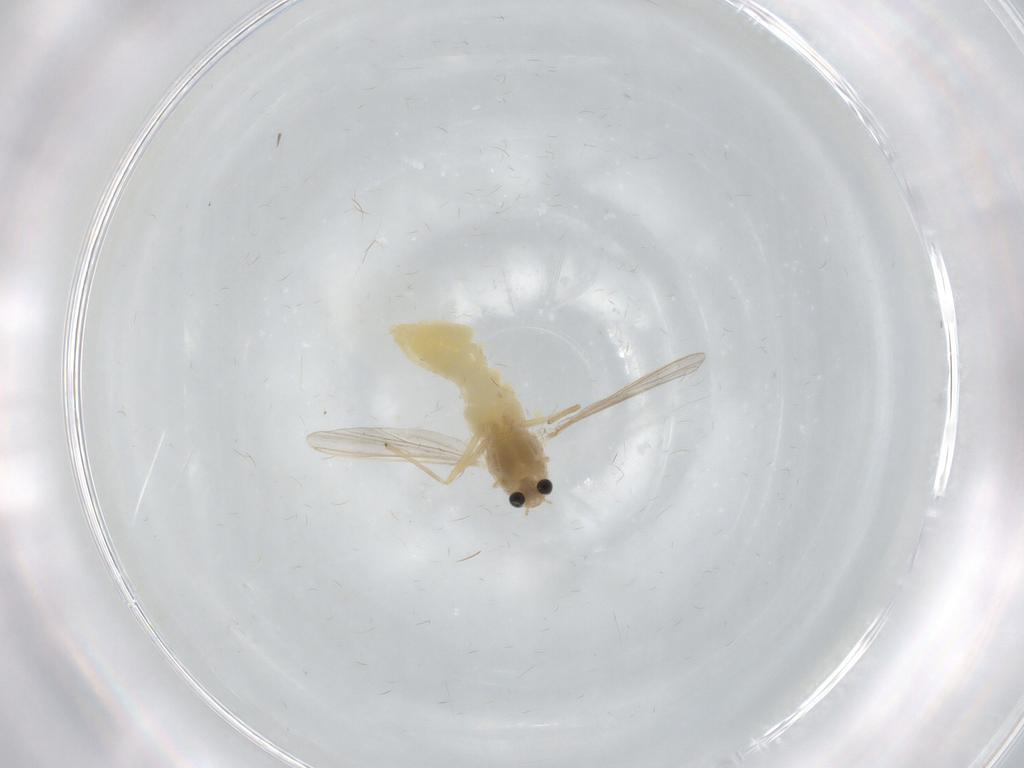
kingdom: Animalia
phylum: Arthropoda
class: Insecta
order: Diptera
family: Chironomidae
